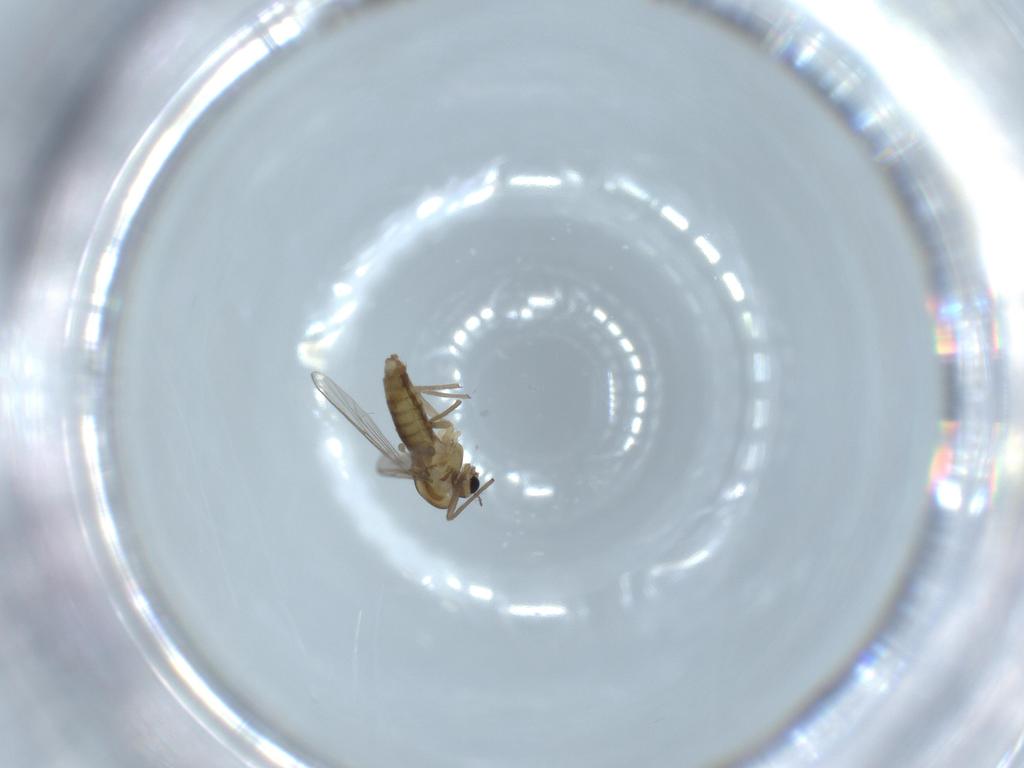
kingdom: Animalia
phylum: Arthropoda
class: Insecta
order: Diptera
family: Chironomidae
